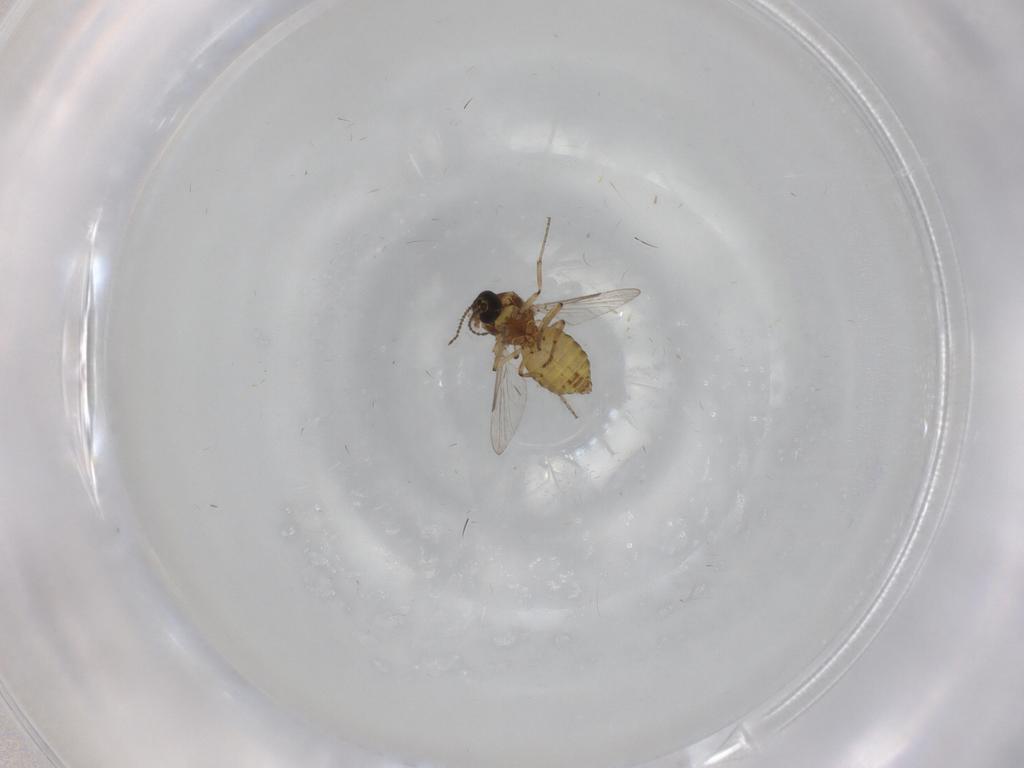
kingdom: Animalia
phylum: Arthropoda
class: Insecta
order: Diptera
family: Ceratopogonidae
